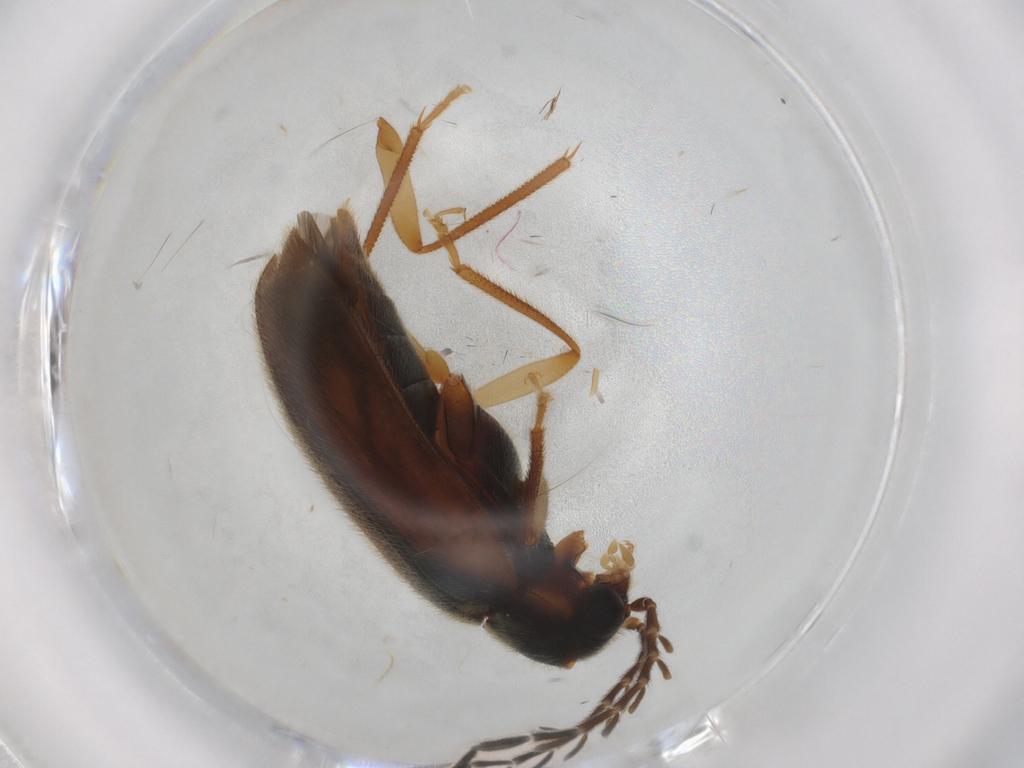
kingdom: Animalia
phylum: Arthropoda
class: Insecta
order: Coleoptera
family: Ptilodactylidae
